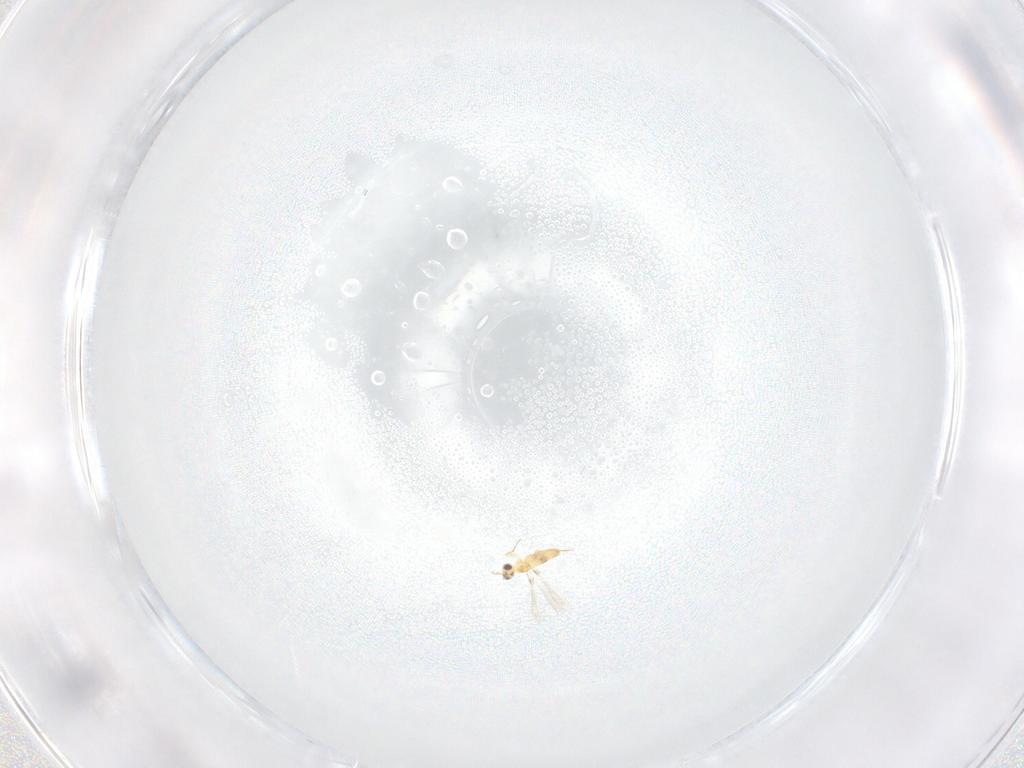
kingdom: Animalia
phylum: Arthropoda
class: Insecta
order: Hymenoptera
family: Mymaridae
